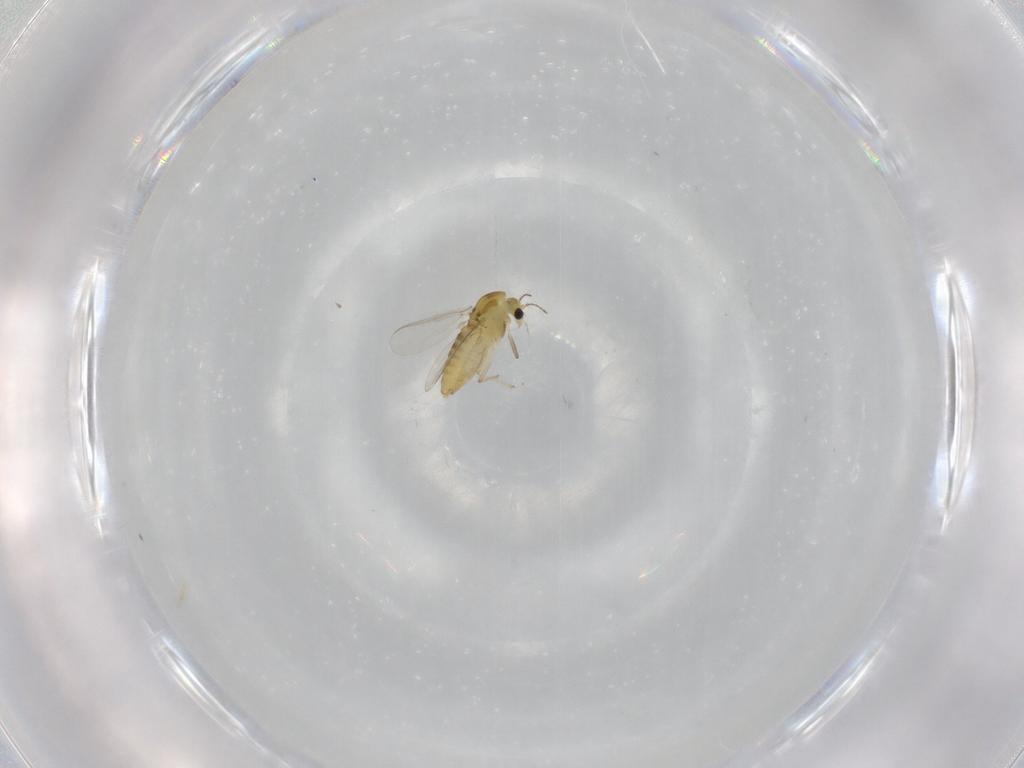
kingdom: Animalia
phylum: Arthropoda
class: Insecta
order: Diptera
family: Chironomidae
